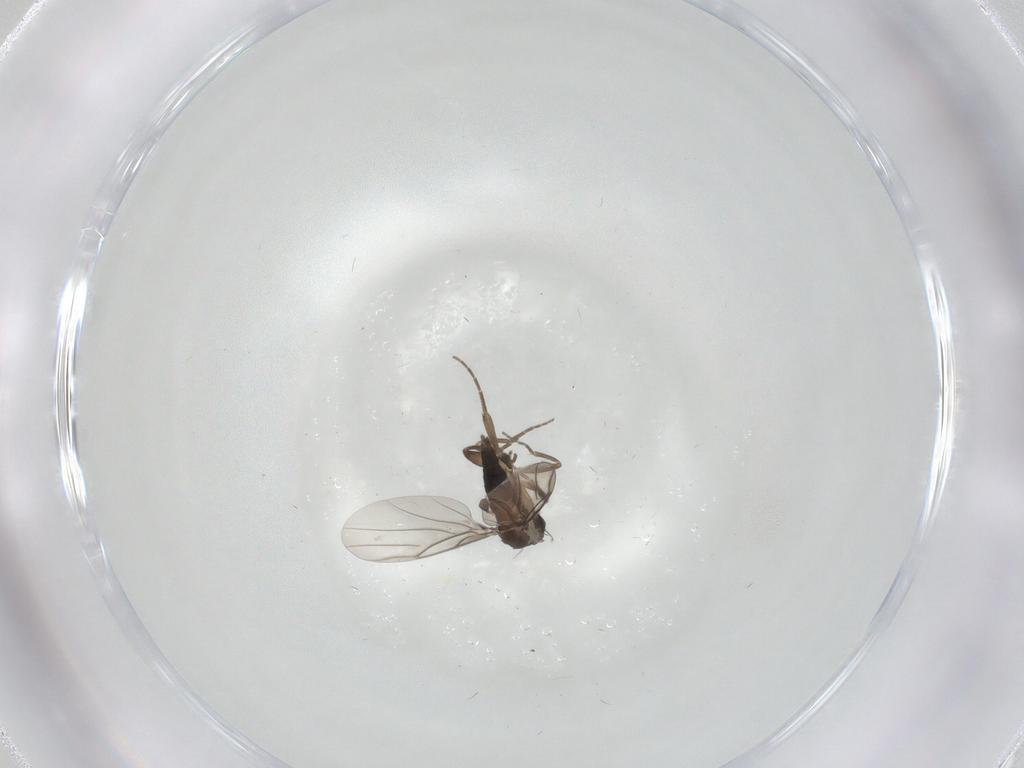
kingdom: Animalia
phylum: Arthropoda
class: Insecta
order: Diptera
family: Phoridae
